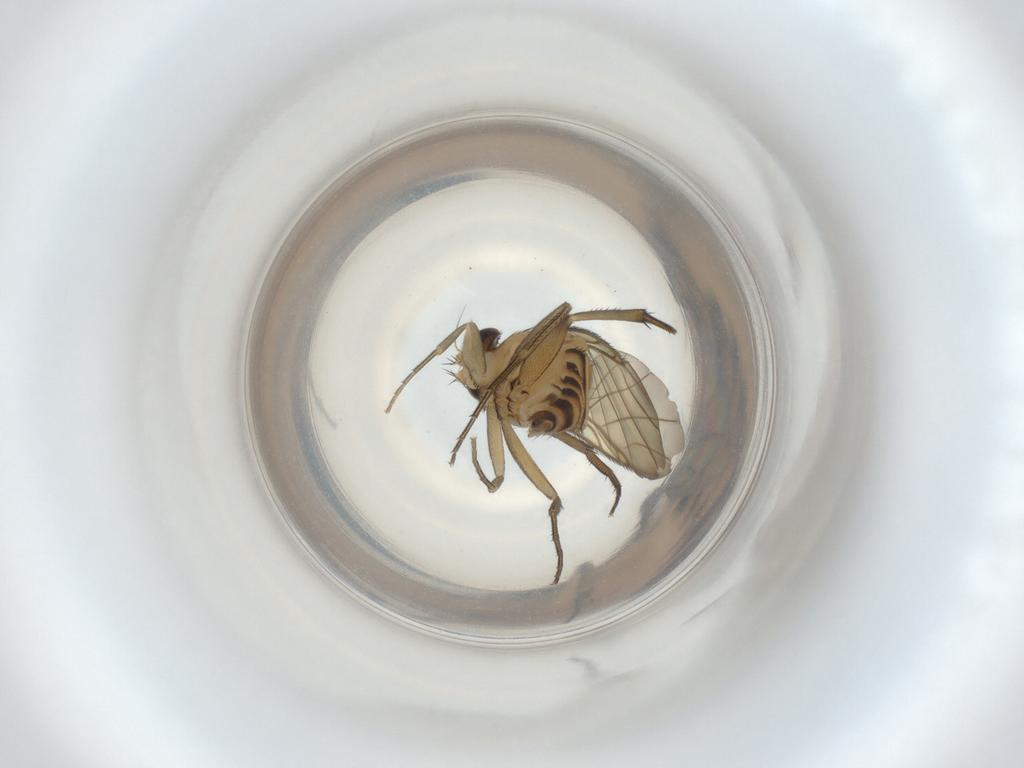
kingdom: Animalia
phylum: Arthropoda
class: Insecta
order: Diptera
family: Phoridae
